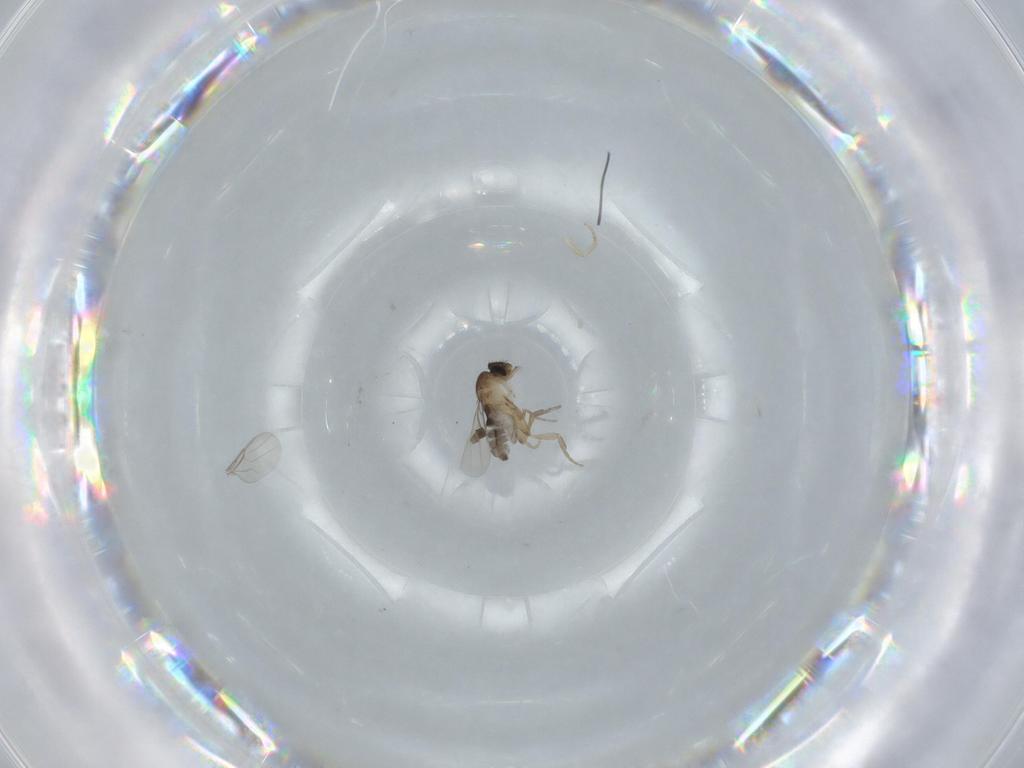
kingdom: Animalia
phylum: Arthropoda
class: Insecta
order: Diptera
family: Phoridae
